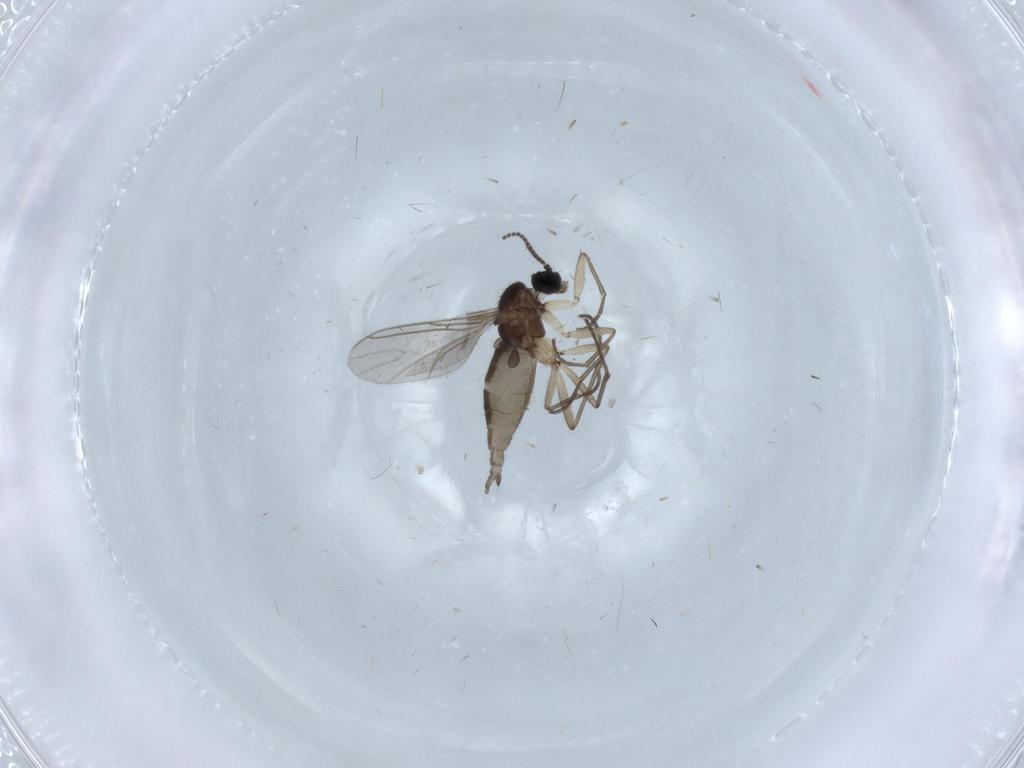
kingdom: Animalia
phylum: Arthropoda
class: Insecta
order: Diptera
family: Sciaridae
